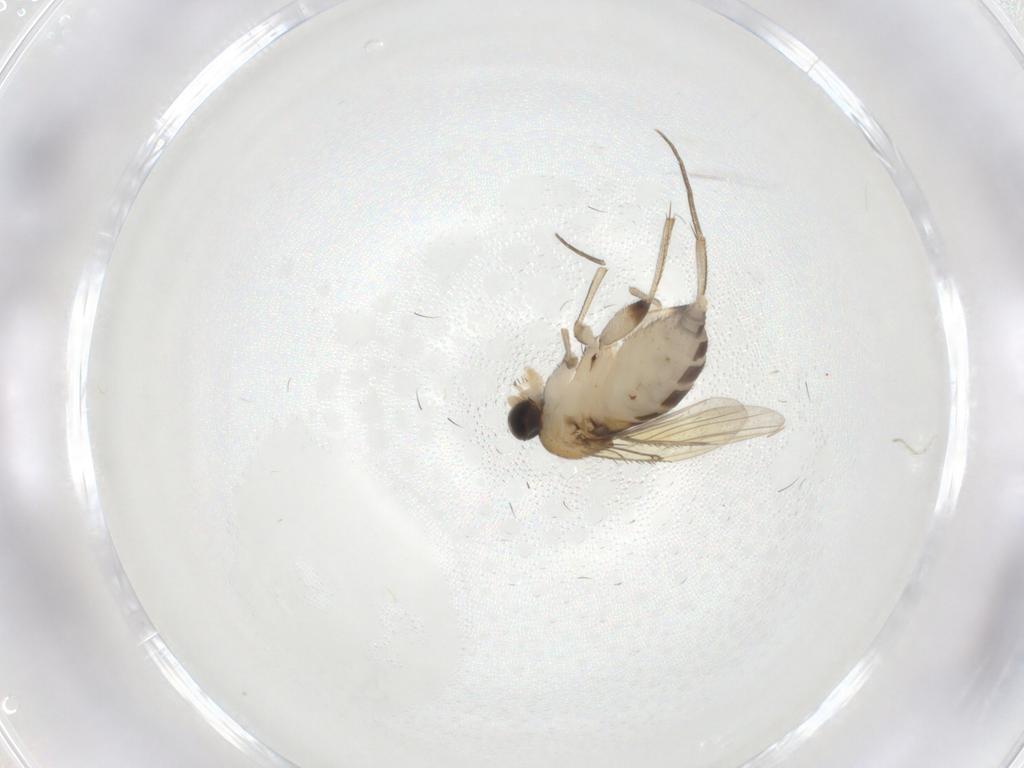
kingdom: Animalia
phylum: Arthropoda
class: Insecta
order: Diptera
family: Phoridae
